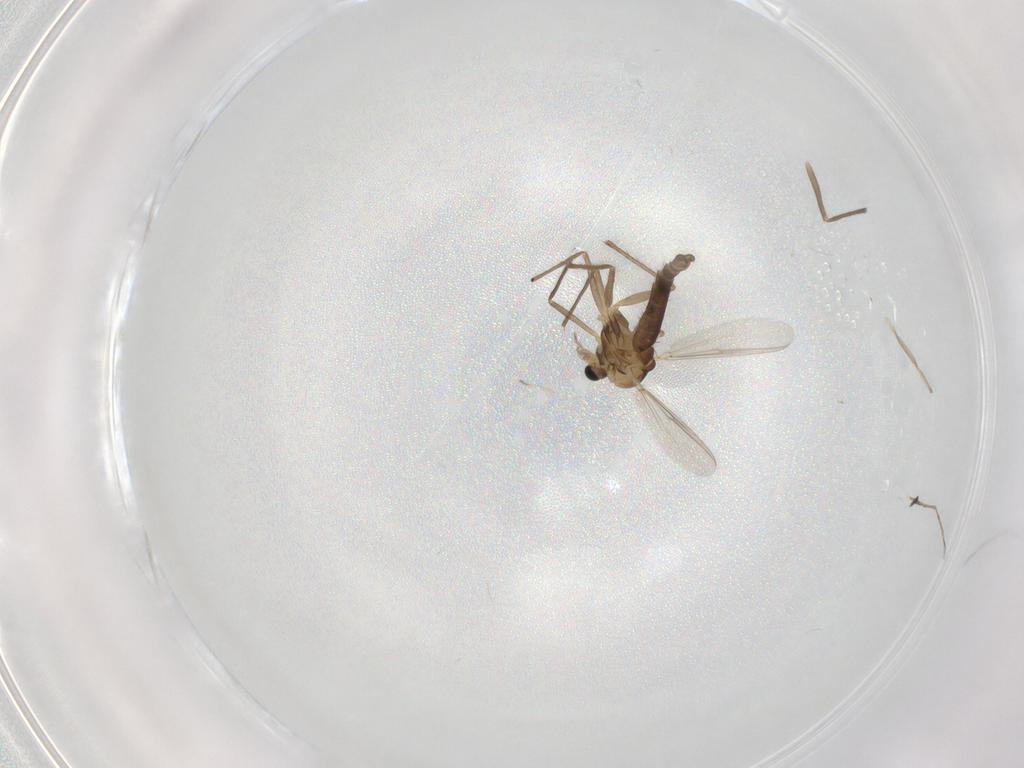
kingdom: Animalia
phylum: Arthropoda
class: Insecta
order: Diptera
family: Chironomidae
